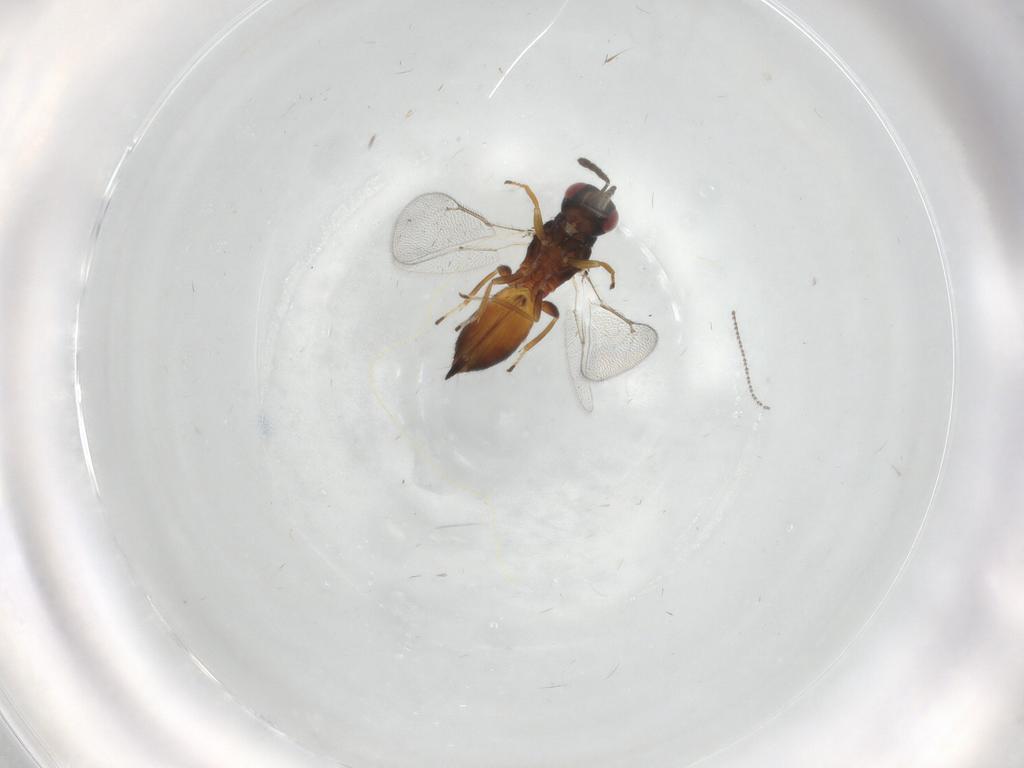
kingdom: Animalia
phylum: Arthropoda
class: Insecta
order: Hymenoptera
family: Eulophidae
